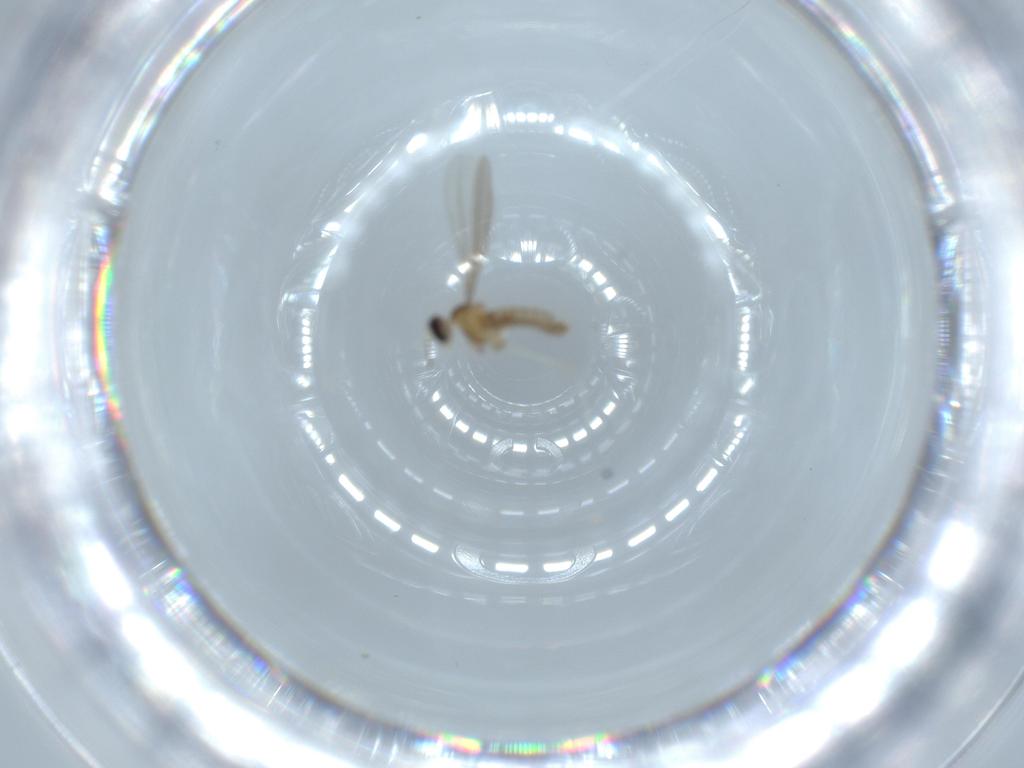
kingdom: Animalia
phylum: Arthropoda
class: Insecta
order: Diptera
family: Cecidomyiidae
